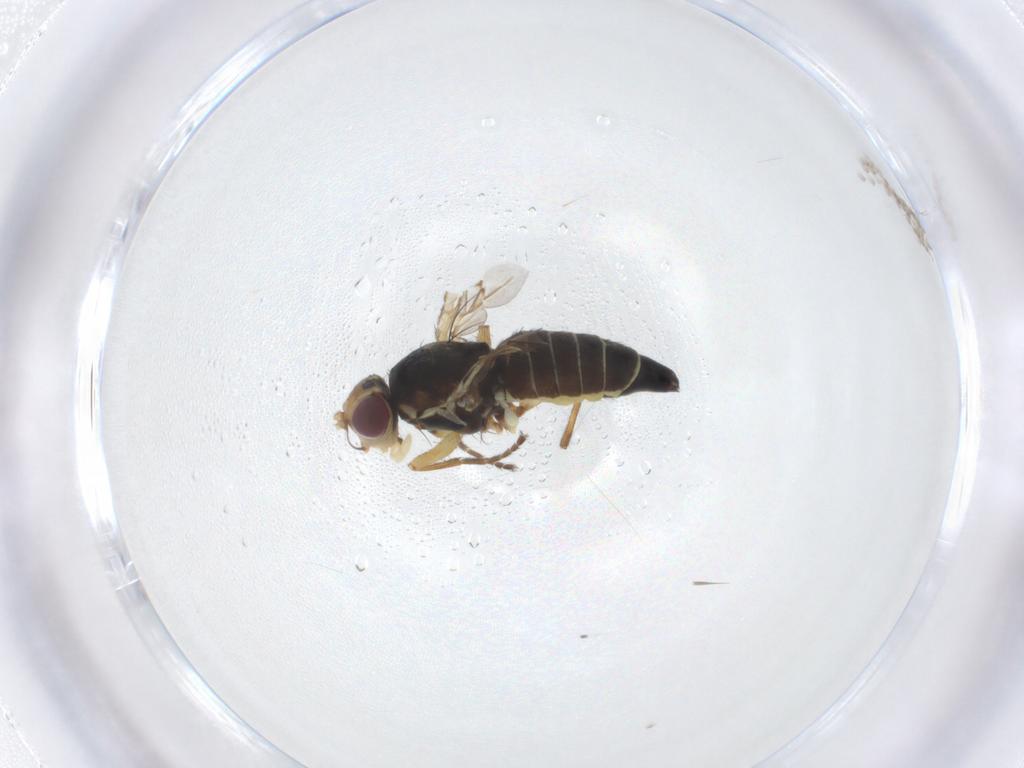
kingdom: Animalia
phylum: Arthropoda
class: Insecta
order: Diptera
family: Agromyzidae
